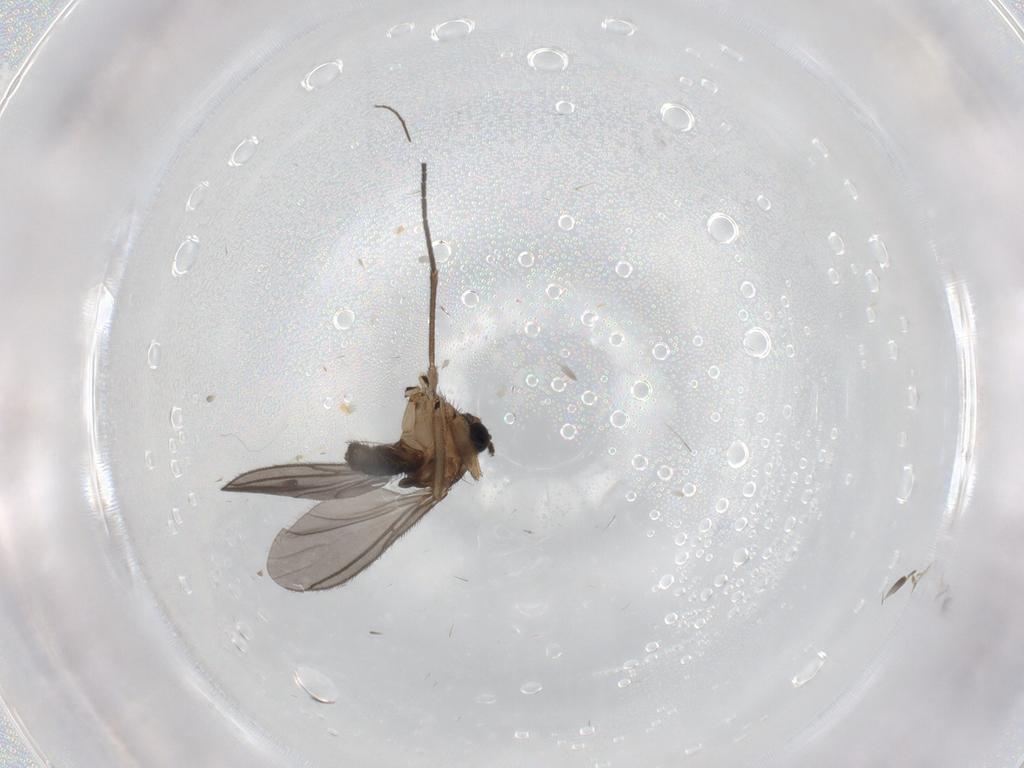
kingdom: Animalia
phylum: Arthropoda
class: Insecta
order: Diptera
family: Chironomidae
